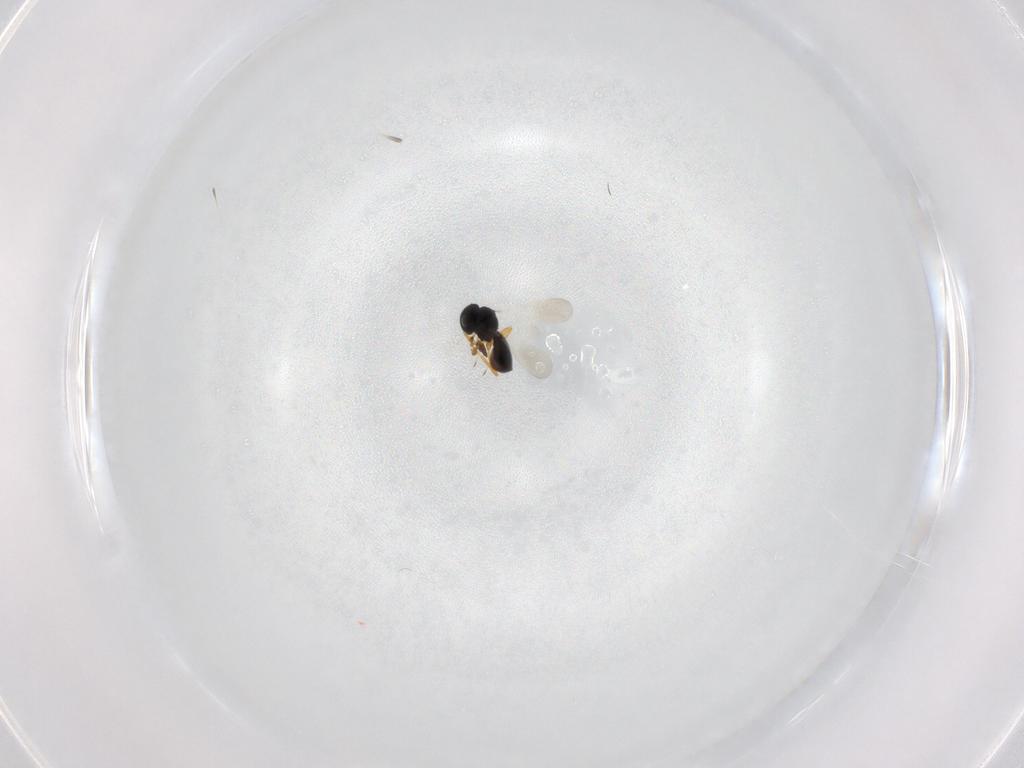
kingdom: Animalia
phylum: Arthropoda
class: Insecta
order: Hymenoptera
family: Platygastridae
